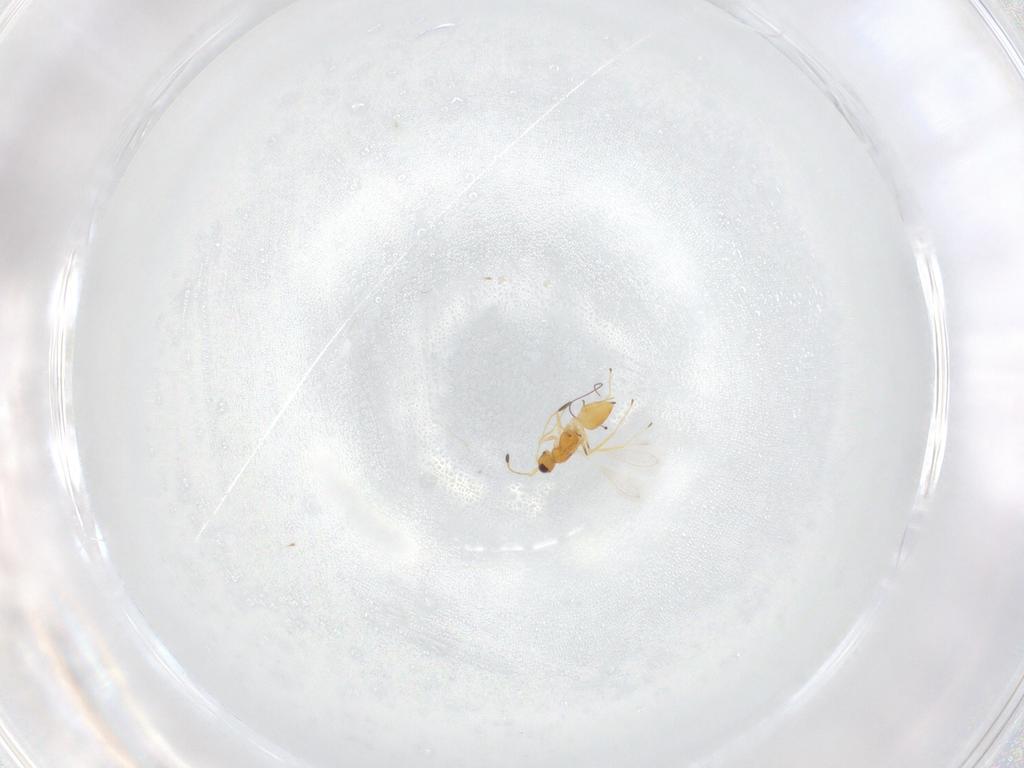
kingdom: Animalia
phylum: Arthropoda
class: Insecta
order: Hymenoptera
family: Mymaridae
